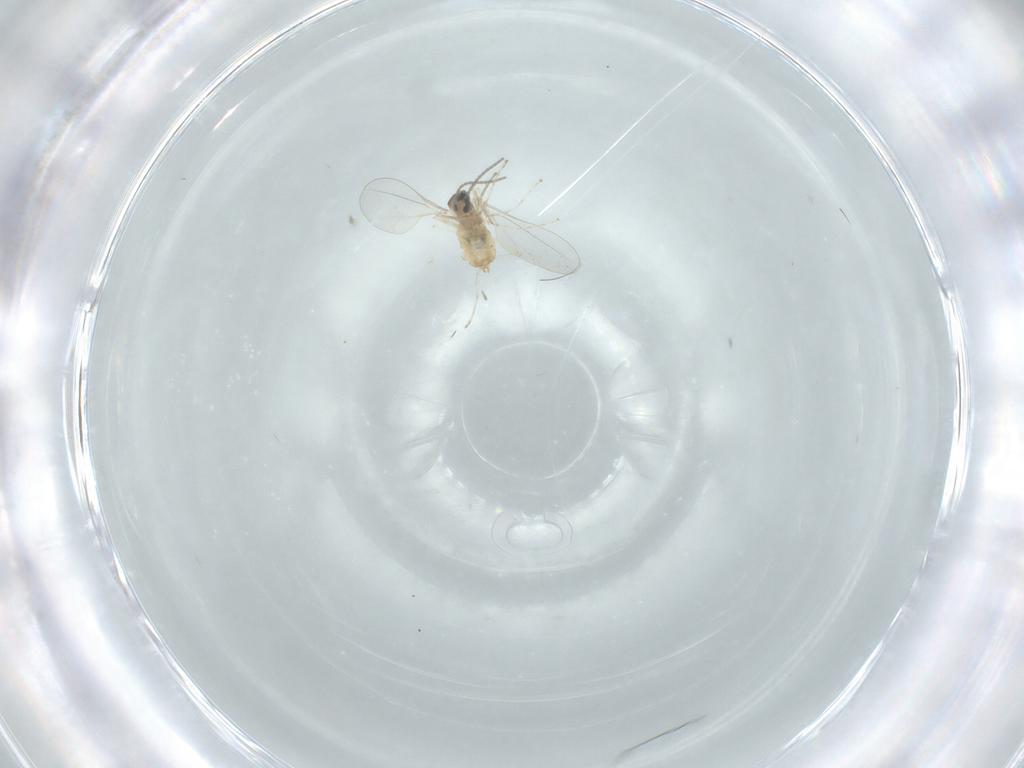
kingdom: Animalia
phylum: Arthropoda
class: Insecta
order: Diptera
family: Cecidomyiidae
